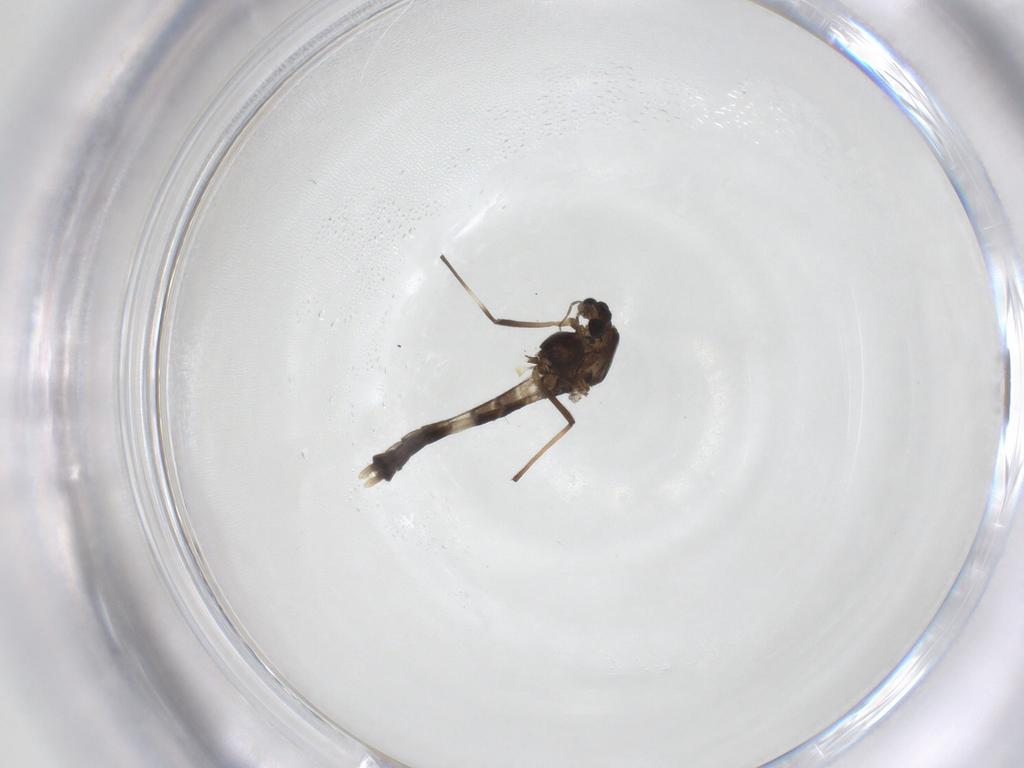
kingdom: Animalia
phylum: Arthropoda
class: Insecta
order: Diptera
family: Chironomidae
